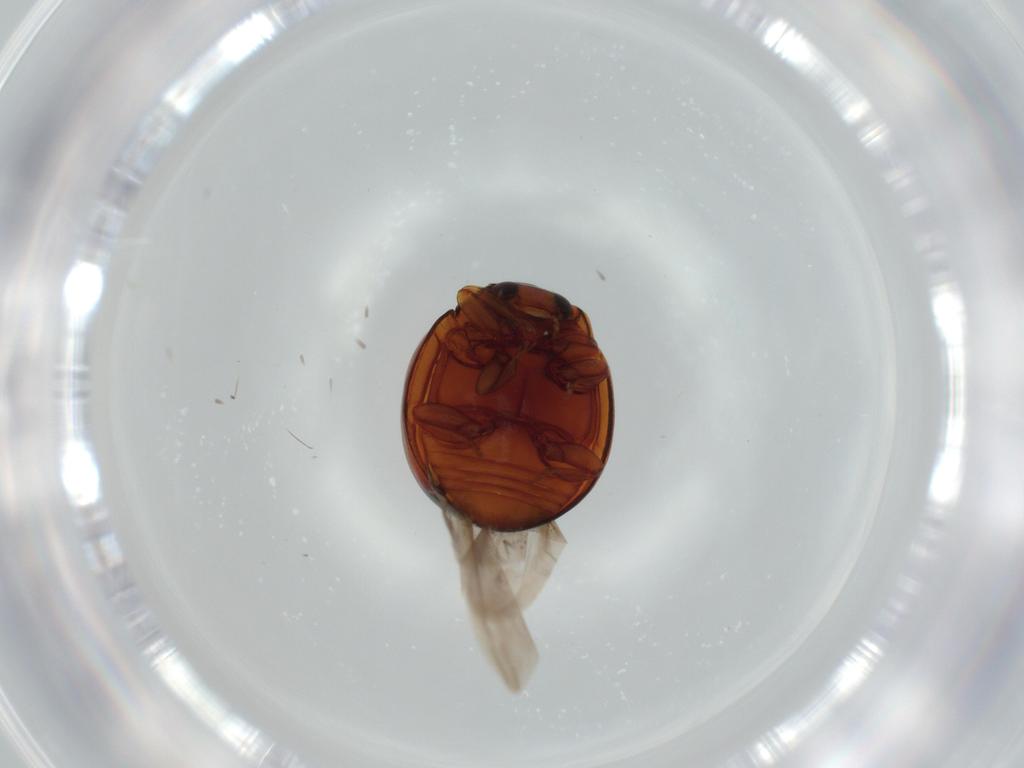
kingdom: Animalia
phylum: Arthropoda
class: Insecta
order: Coleoptera
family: Coccinellidae
